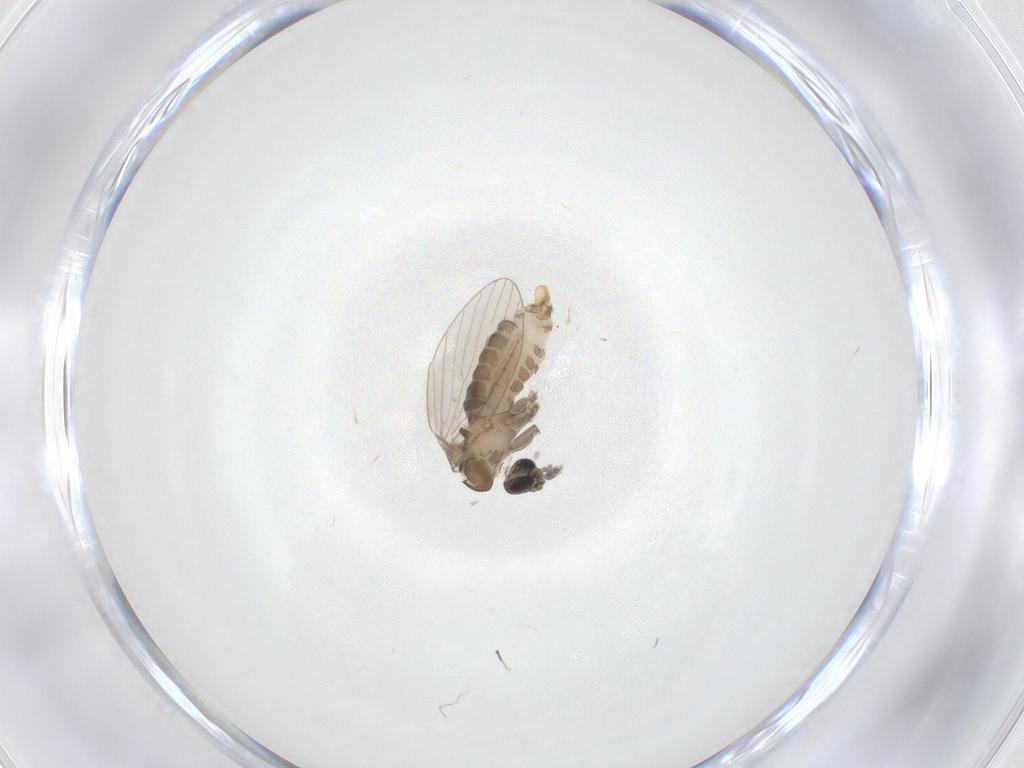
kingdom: Animalia
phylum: Arthropoda
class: Insecta
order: Diptera
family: Psychodidae
